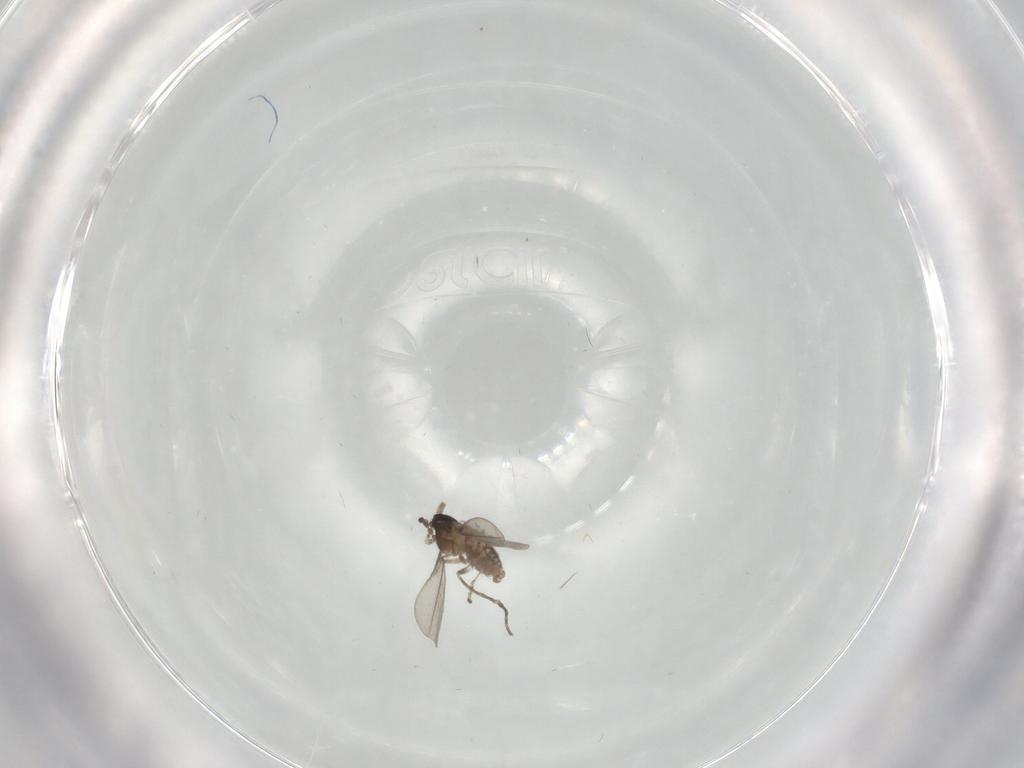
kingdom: Animalia
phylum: Arthropoda
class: Insecta
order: Diptera
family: Cecidomyiidae
